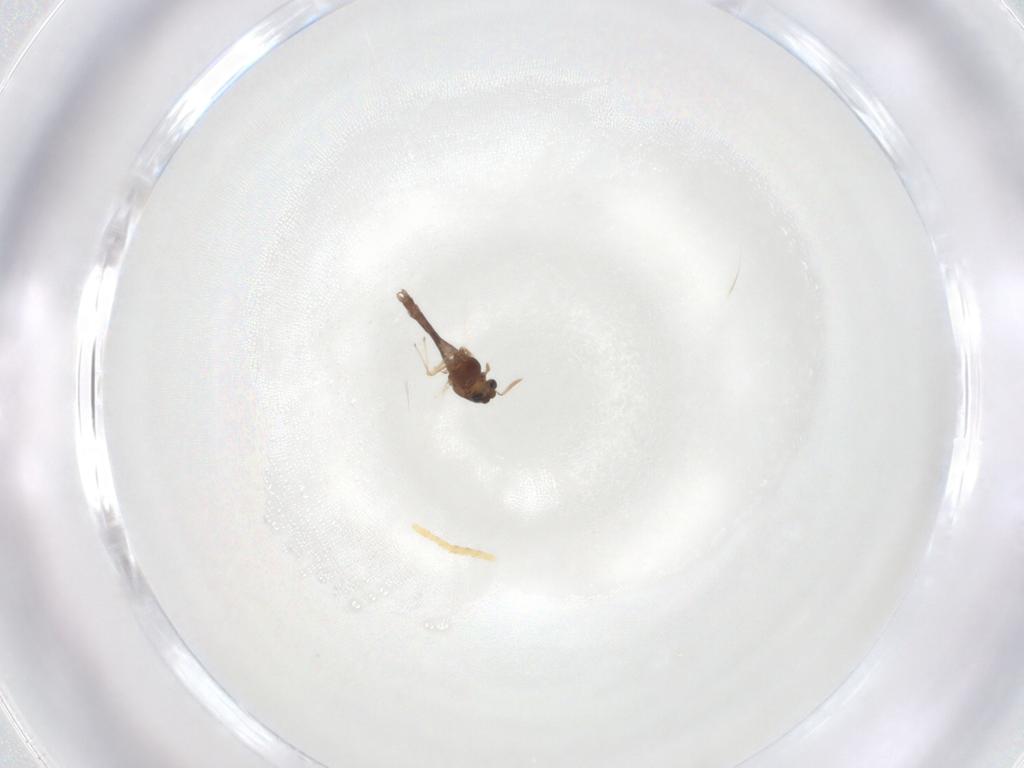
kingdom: Animalia
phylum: Arthropoda
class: Insecta
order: Diptera
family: Chironomidae
